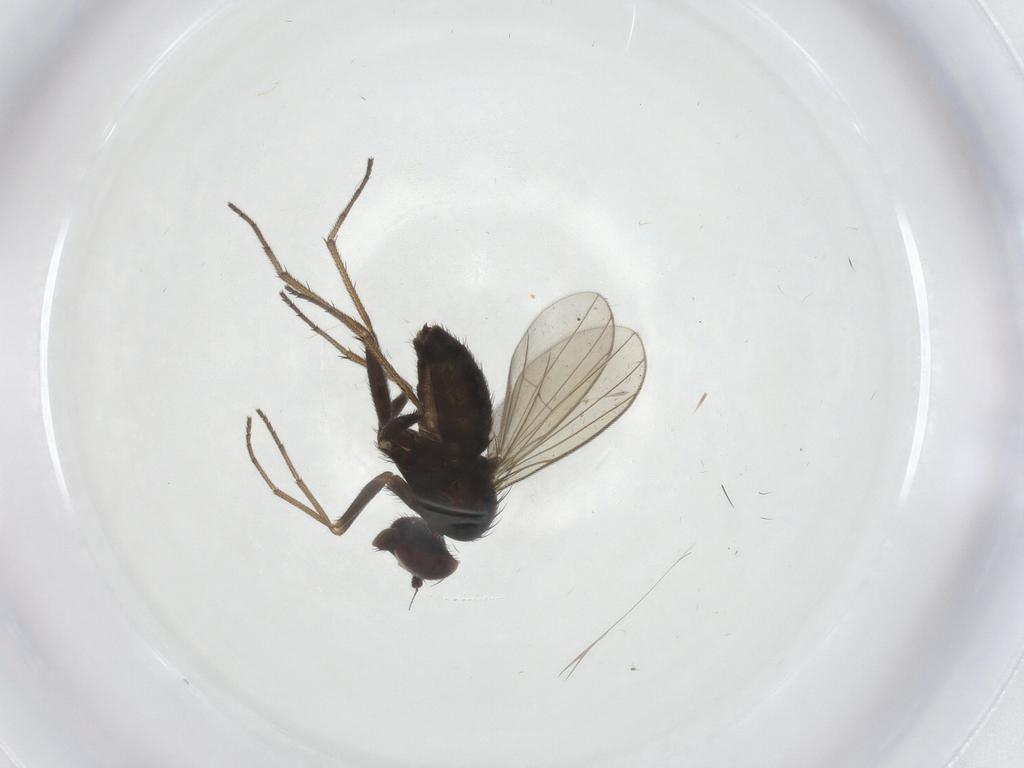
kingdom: Animalia
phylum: Arthropoda
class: Insecta
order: Diptera
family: Dolichopodidae
